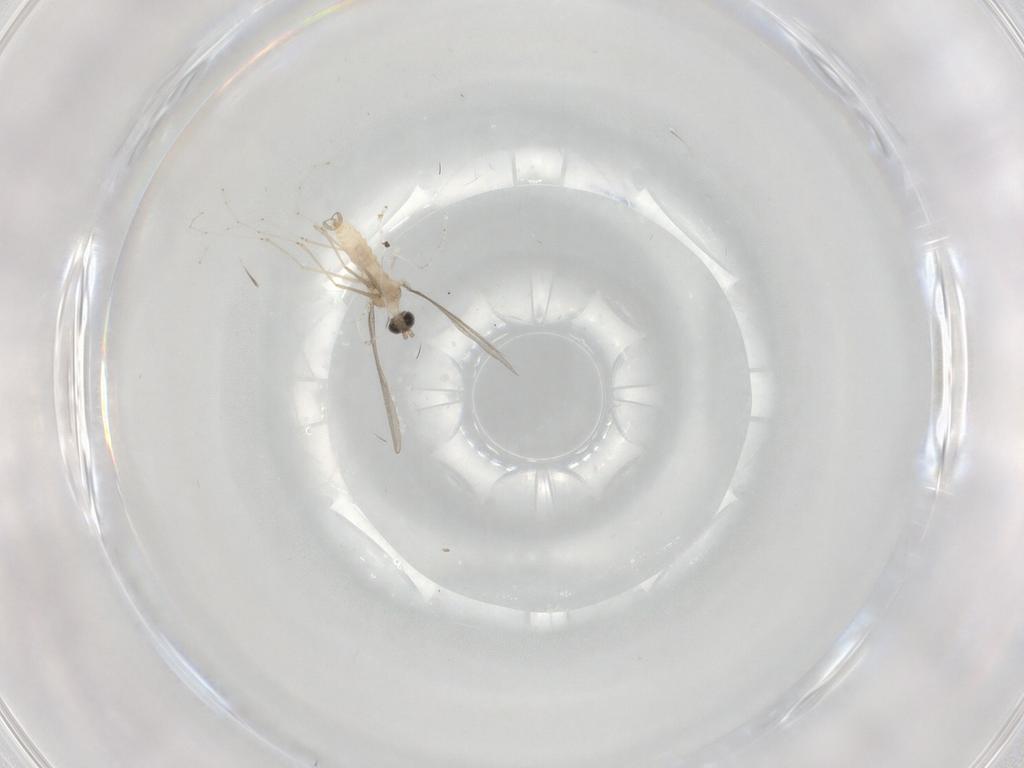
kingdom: Animalia
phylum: Arthropoda
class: Insecta
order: Diptera
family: Cecidomyiidae
